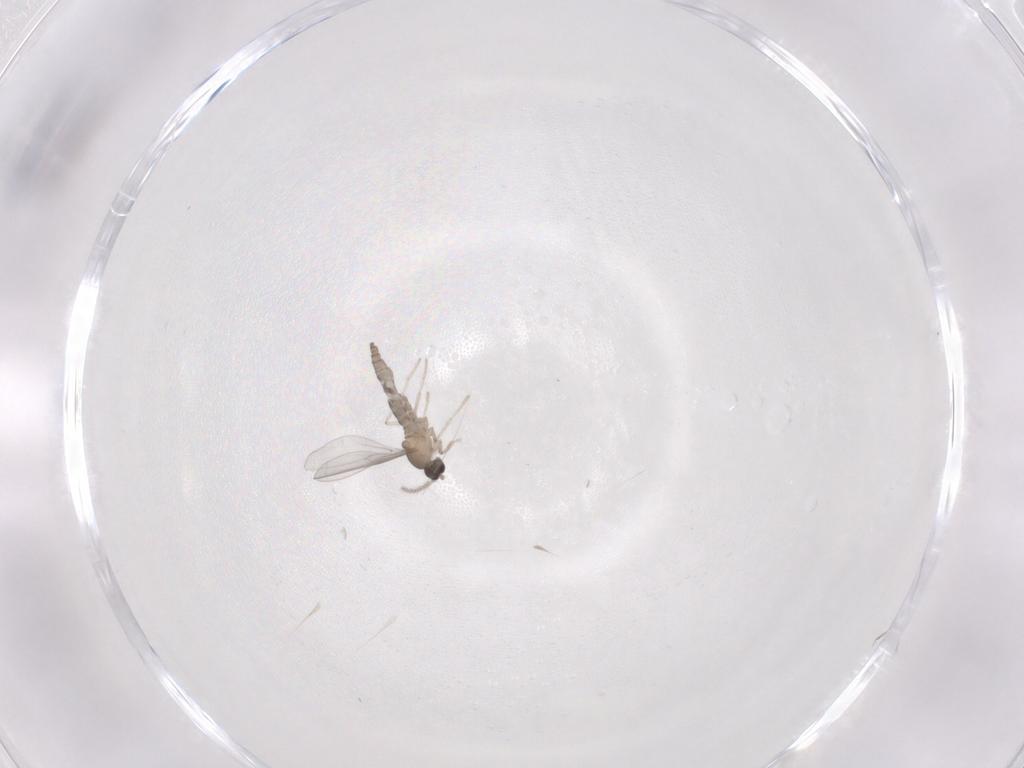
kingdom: Animalia
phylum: Arthropoda
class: Insecta
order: Diptera
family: Cecidomyiidae
